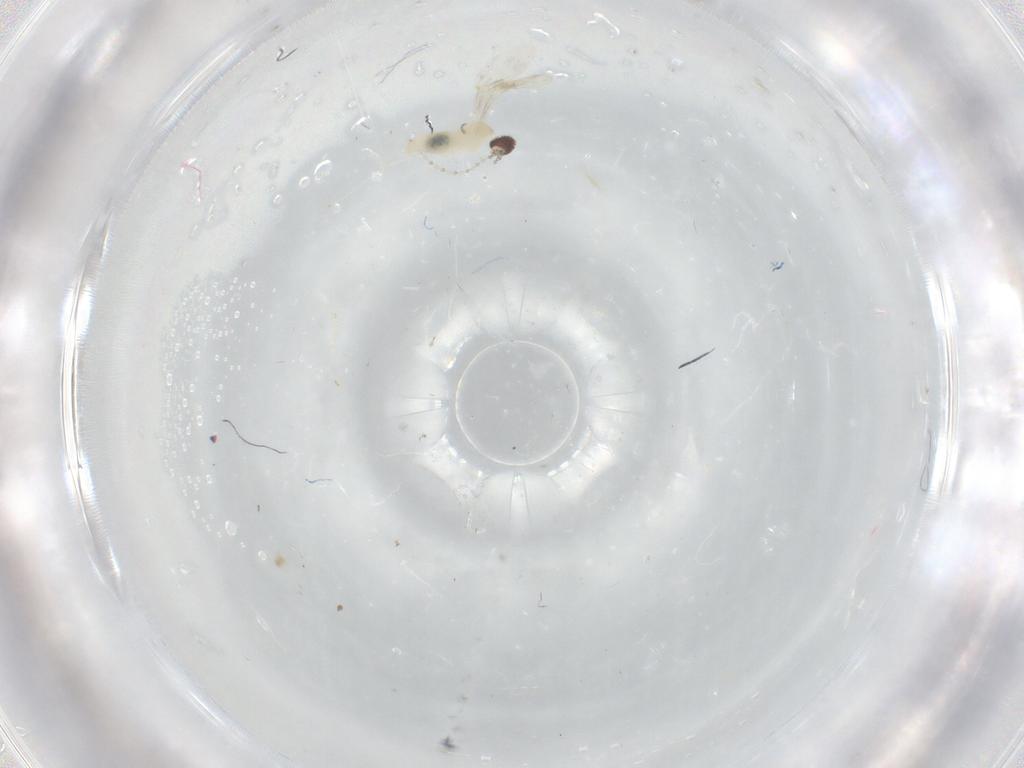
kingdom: Animalia
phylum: Arthropoda
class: Insecta
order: Diptera
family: Cecidomyiidae
